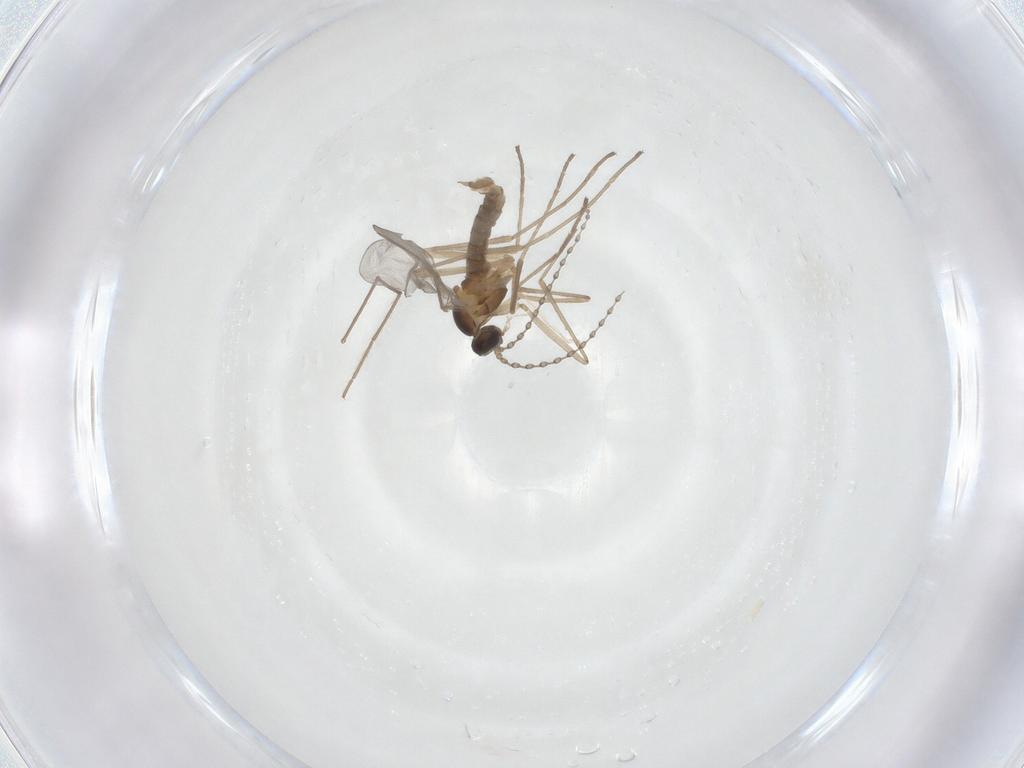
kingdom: Animalia
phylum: Arthropoda
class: Insecta
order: Diptera
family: Cecidomyiidae
